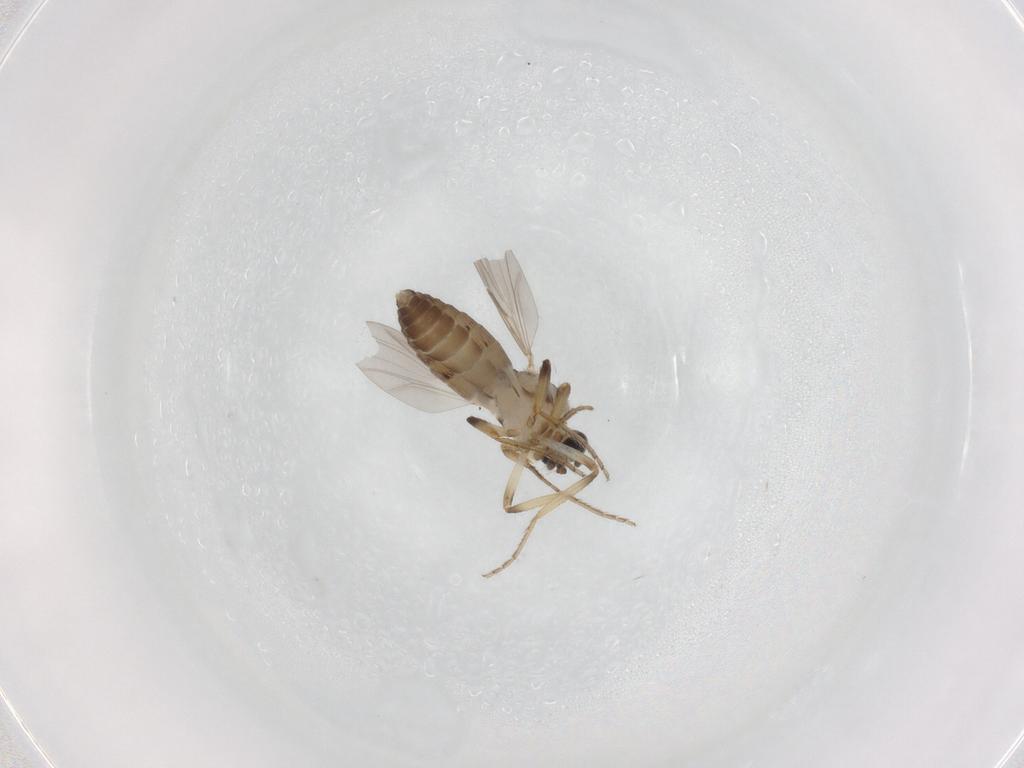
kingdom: Animalia
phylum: Arthropoda
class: Insecta
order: Diptera
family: Ceratopogonidae
